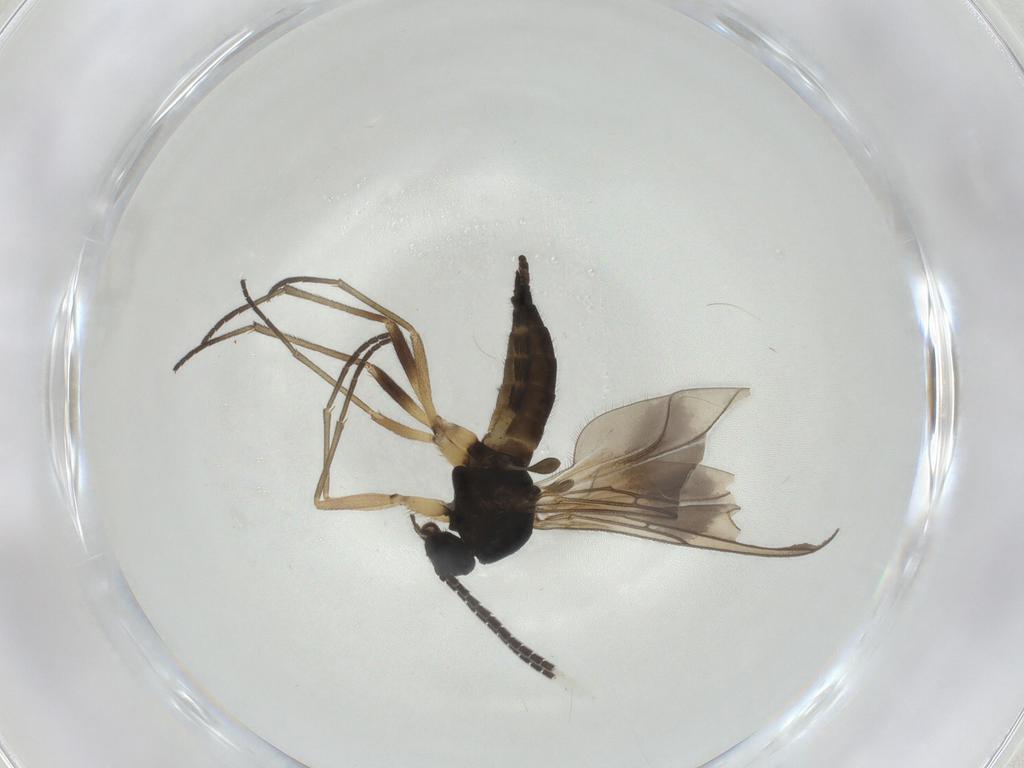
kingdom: Animalia
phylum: Arthropoda
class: Insecta
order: Diptera
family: Sciaridae
